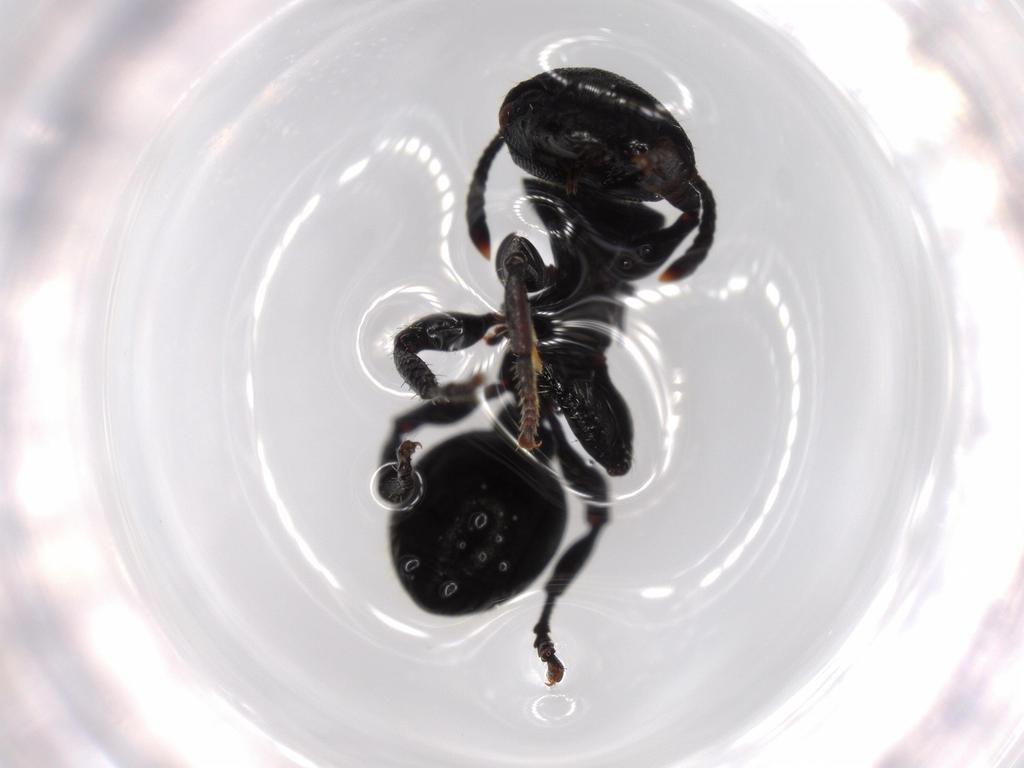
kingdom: Animalia
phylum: Arthropoda
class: Insecta
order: Hymenoptera
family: Formicidae
